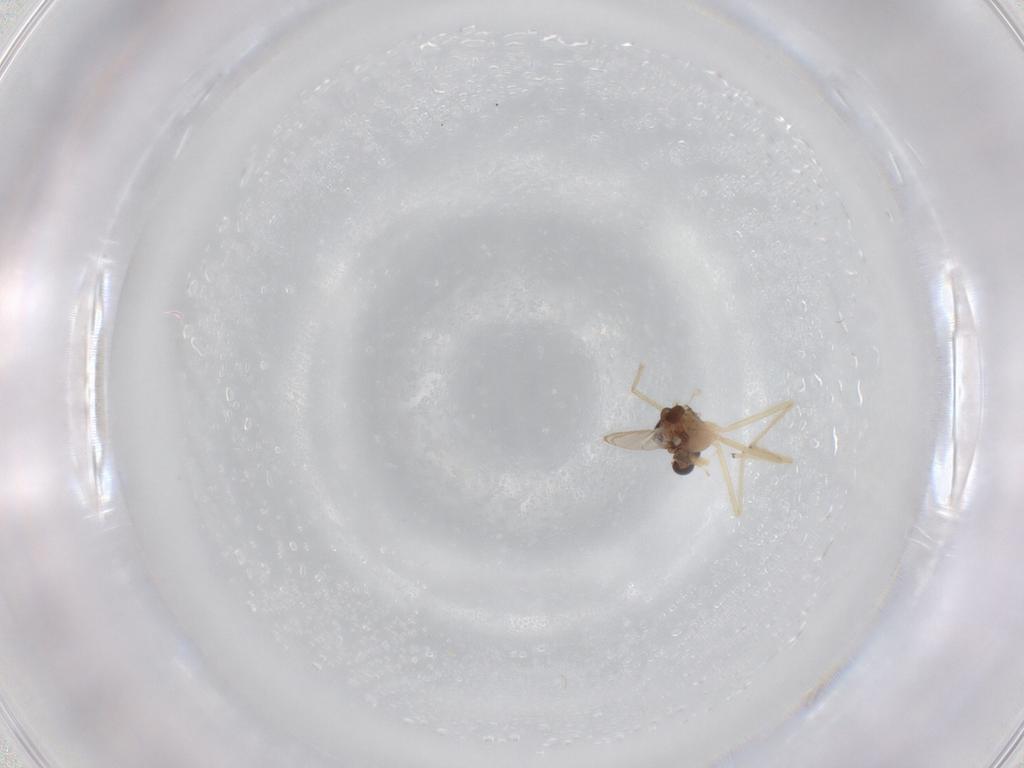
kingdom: Animalia
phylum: Arthropoda
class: Insecta
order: Diptera
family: Chironomidae
